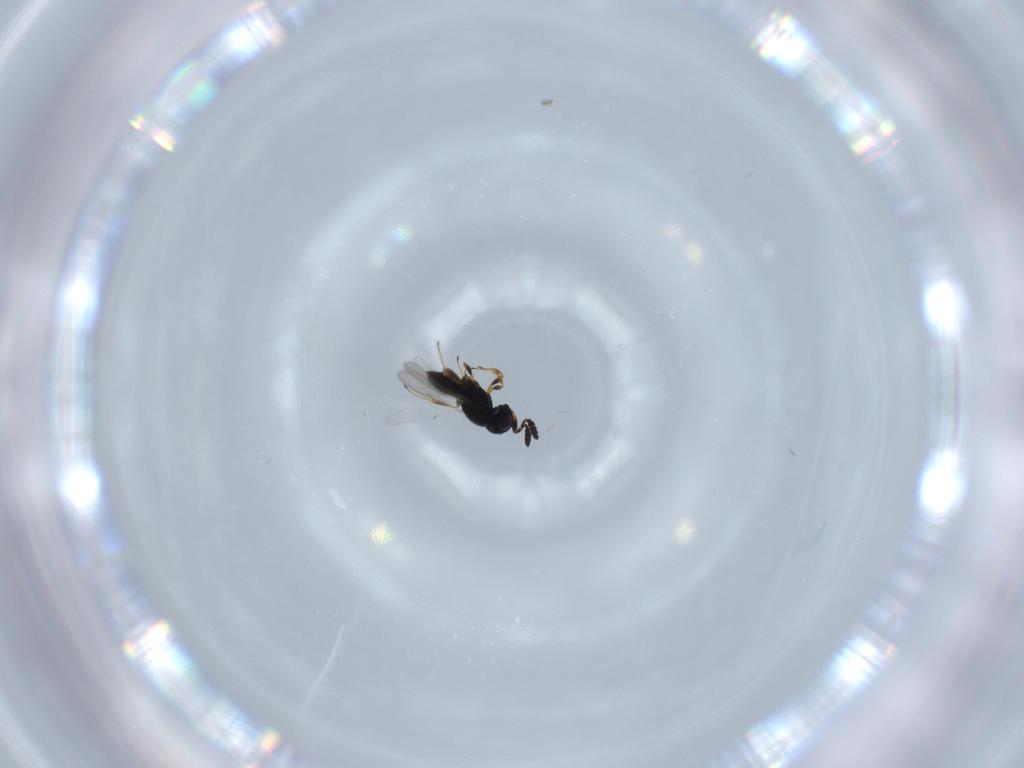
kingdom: Animalia
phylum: Arthropoda
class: Insecta
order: Hymenoptera
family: Scelionidae
